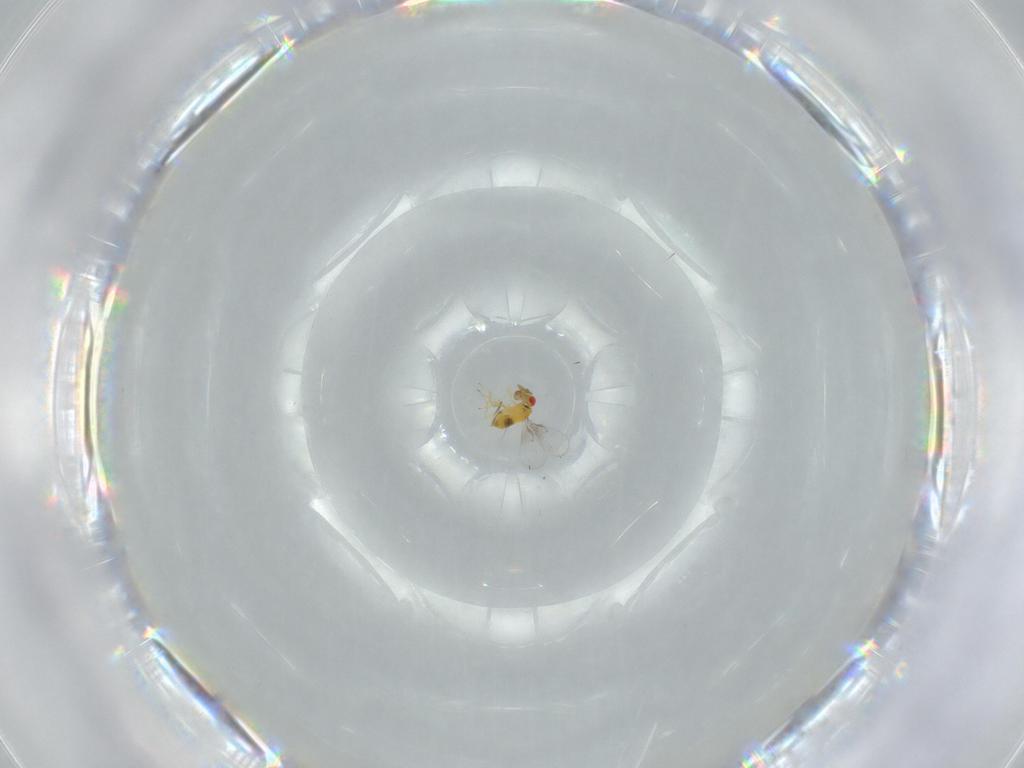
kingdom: Animalia
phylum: Arthropoda
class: Insecta
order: Hymenoptera
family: Trichogrammatidae
